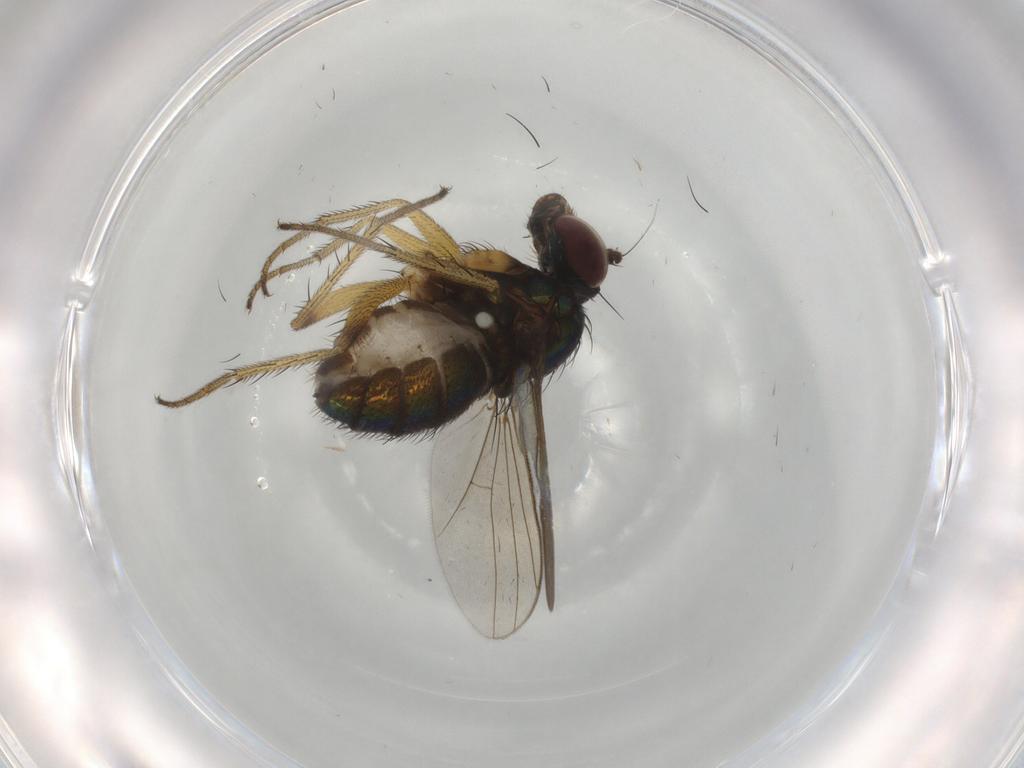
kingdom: Animalia
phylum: Arthropoda
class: Insecta
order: Diptera
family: Dolichopodidae
